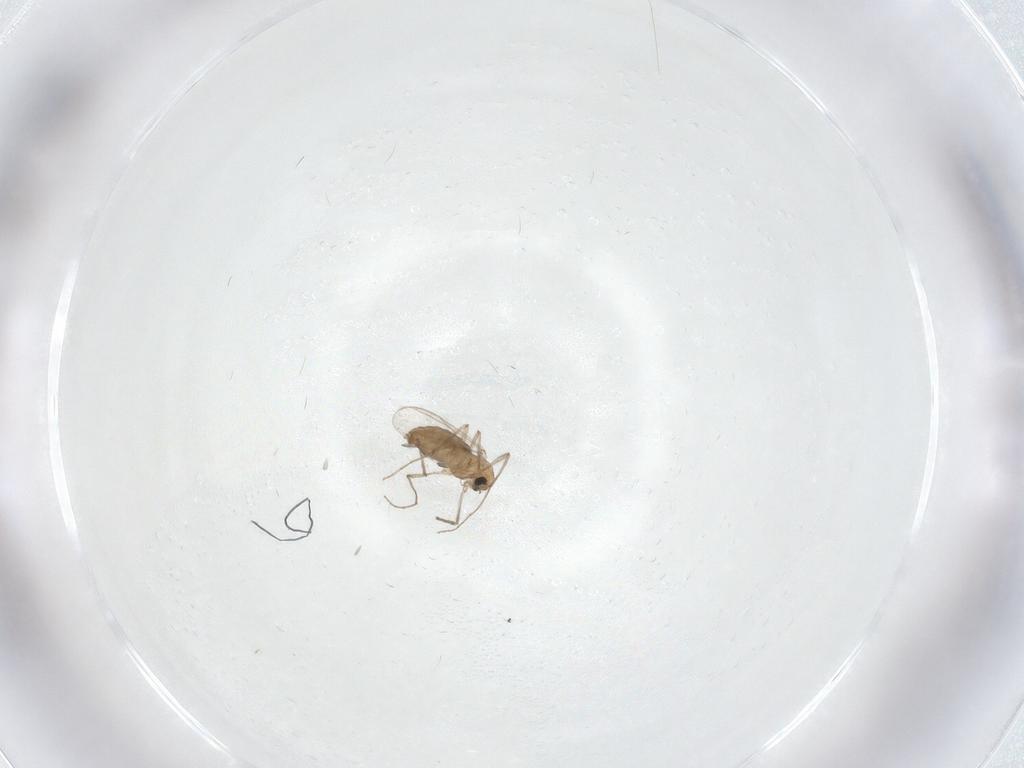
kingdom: Animalia
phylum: Arthropoda
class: Insecta
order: Diptera
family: Chironomidae
